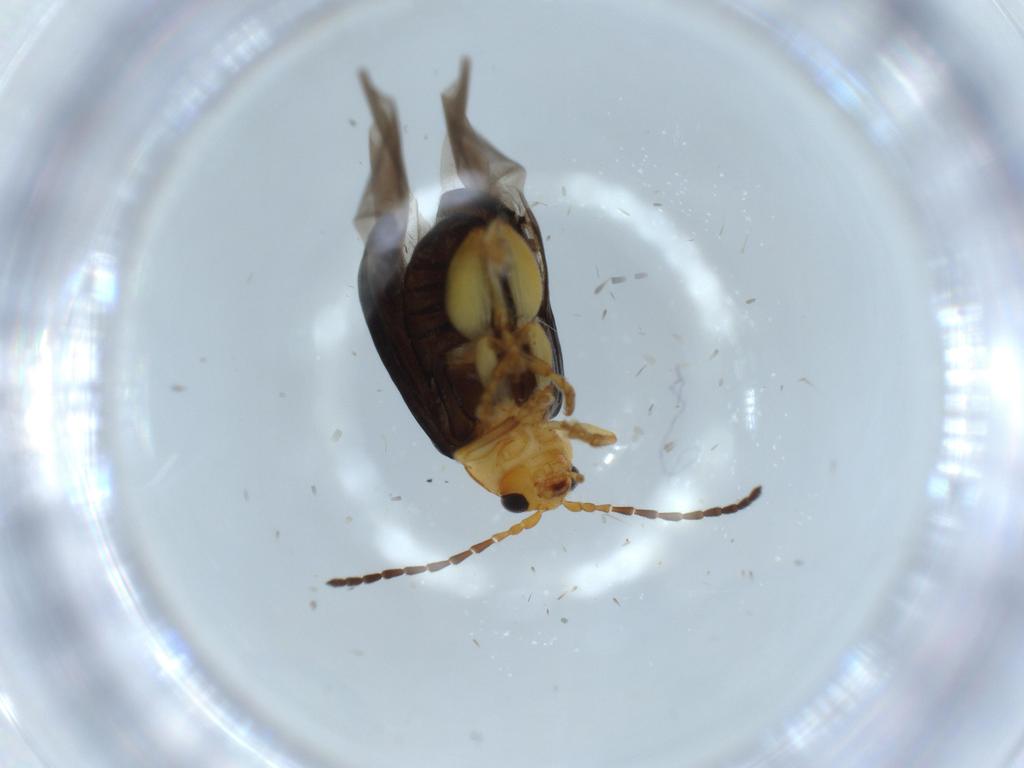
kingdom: Animalia
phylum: Arthropoda
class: Insecta
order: Coleoptera
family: Chrysomelidae
